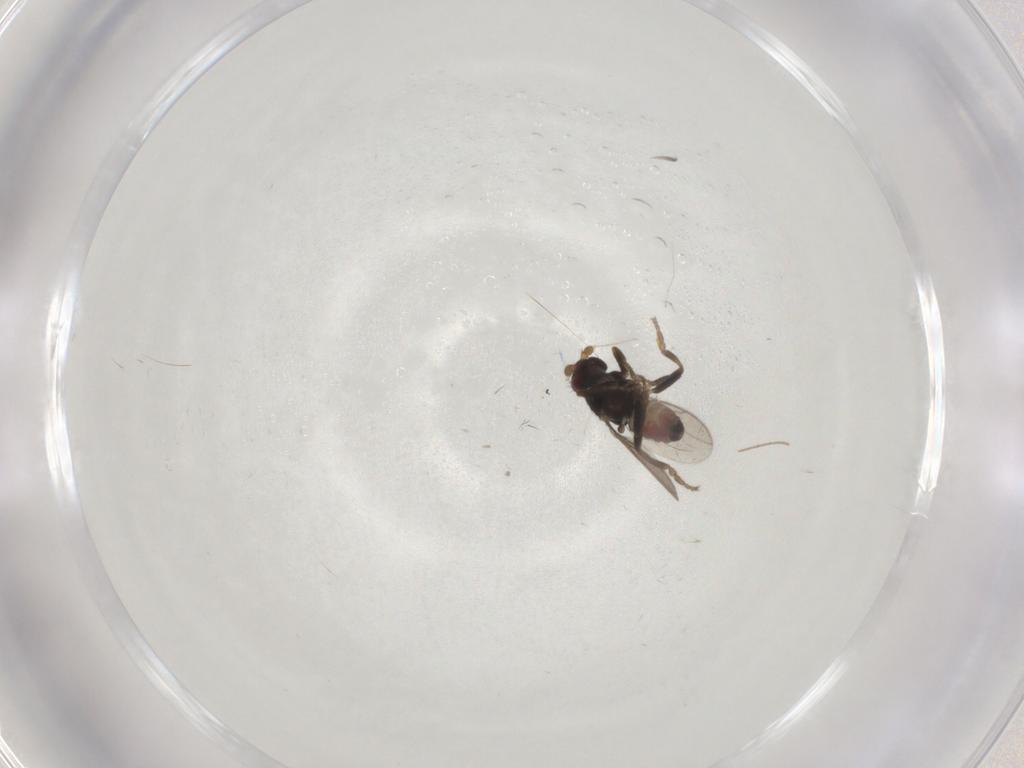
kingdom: Animalia
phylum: Arthropoda
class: Insecta
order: Diptera
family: Sphaeroceridae
